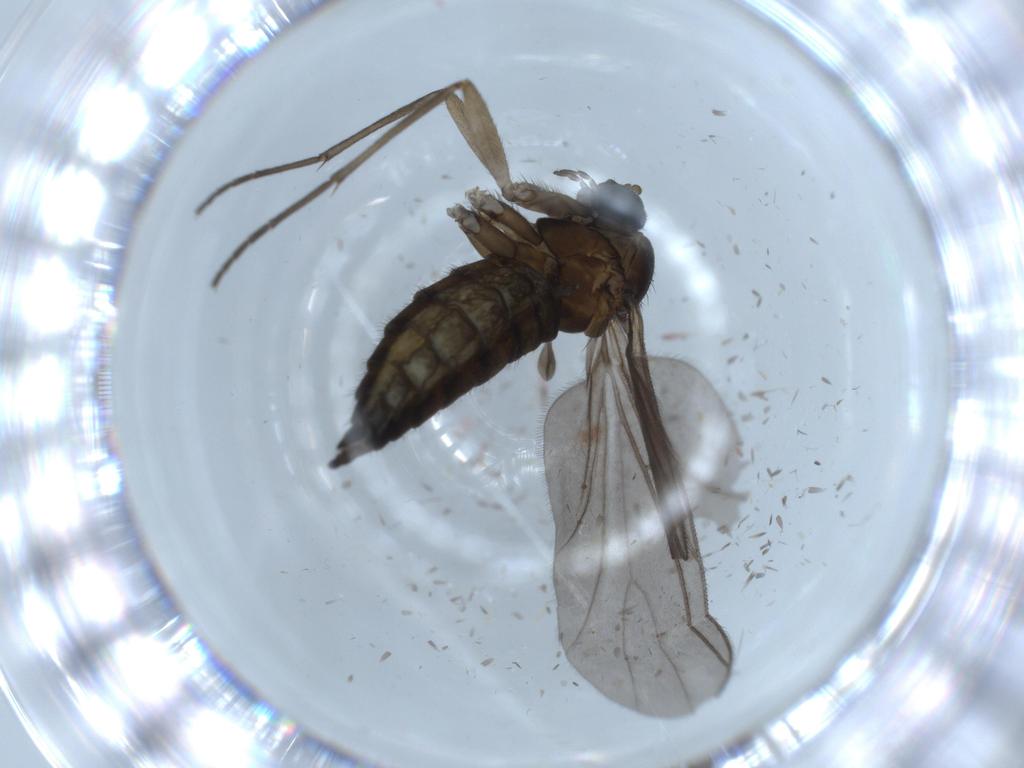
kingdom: Animalia
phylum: Arthropoda
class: Insecta
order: Diptera
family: Sciaridae
